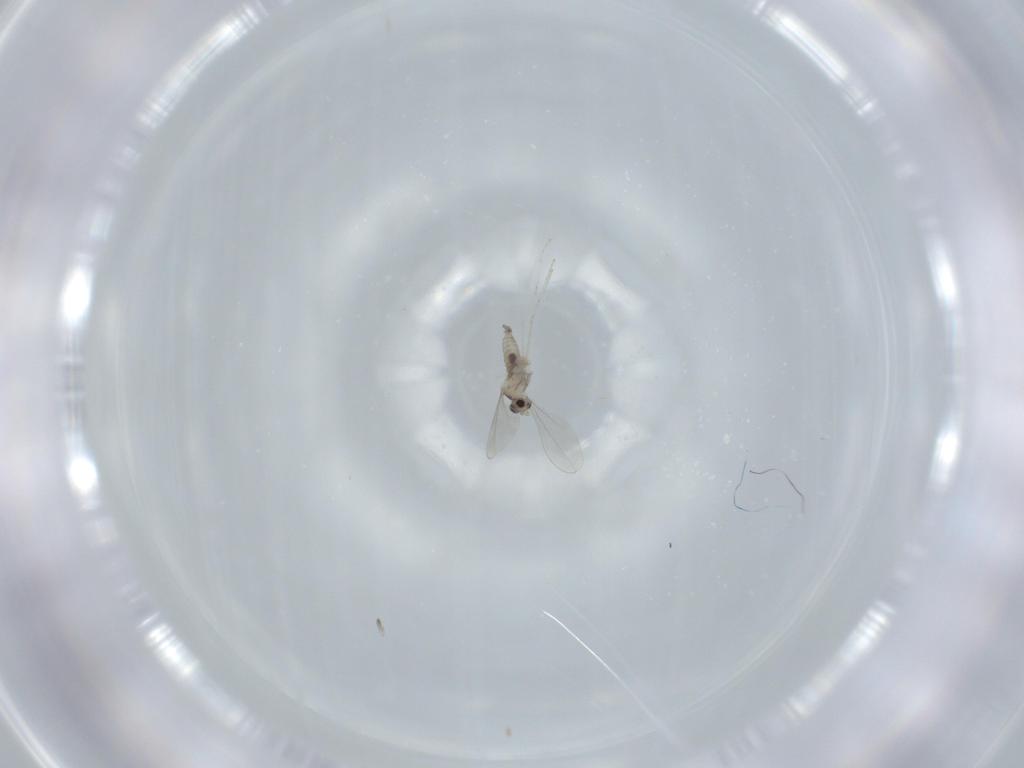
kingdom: Animalia
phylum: Arthropoda
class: Insecta
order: Diptera
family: Cecidomyiidae
